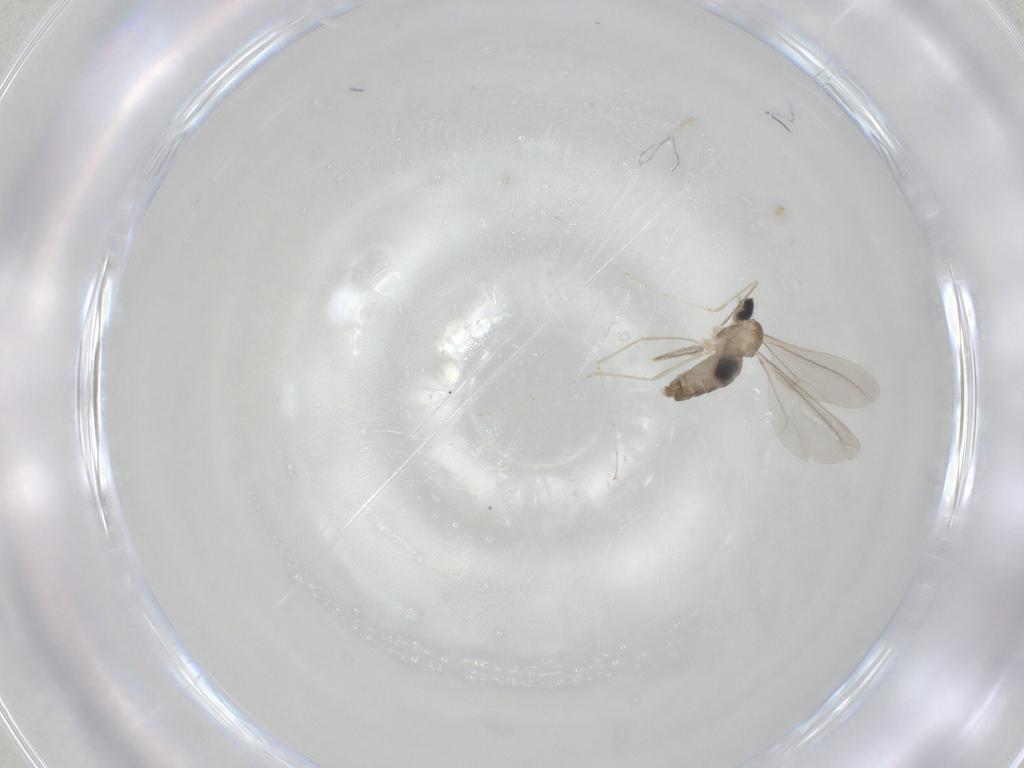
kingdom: Animalia
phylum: Arthropoda
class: Insecta
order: Diptera
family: Cecidomyiidae
